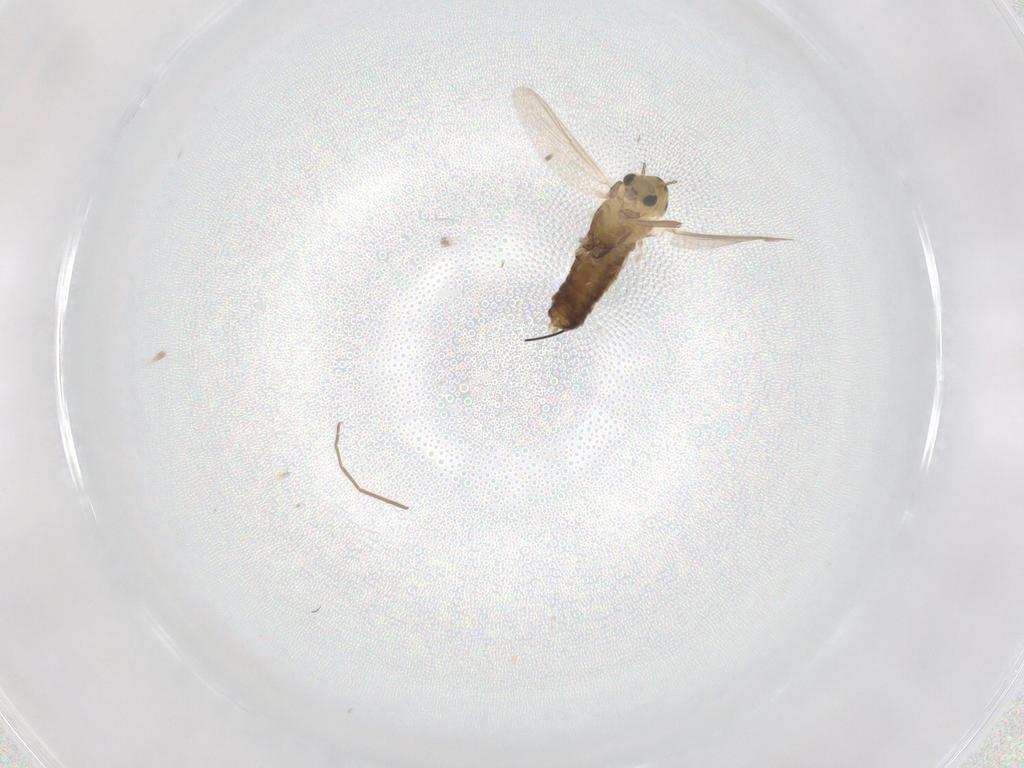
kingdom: Animalia
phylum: Arthropoda
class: Insecta
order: Diptera
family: Chironomidae
